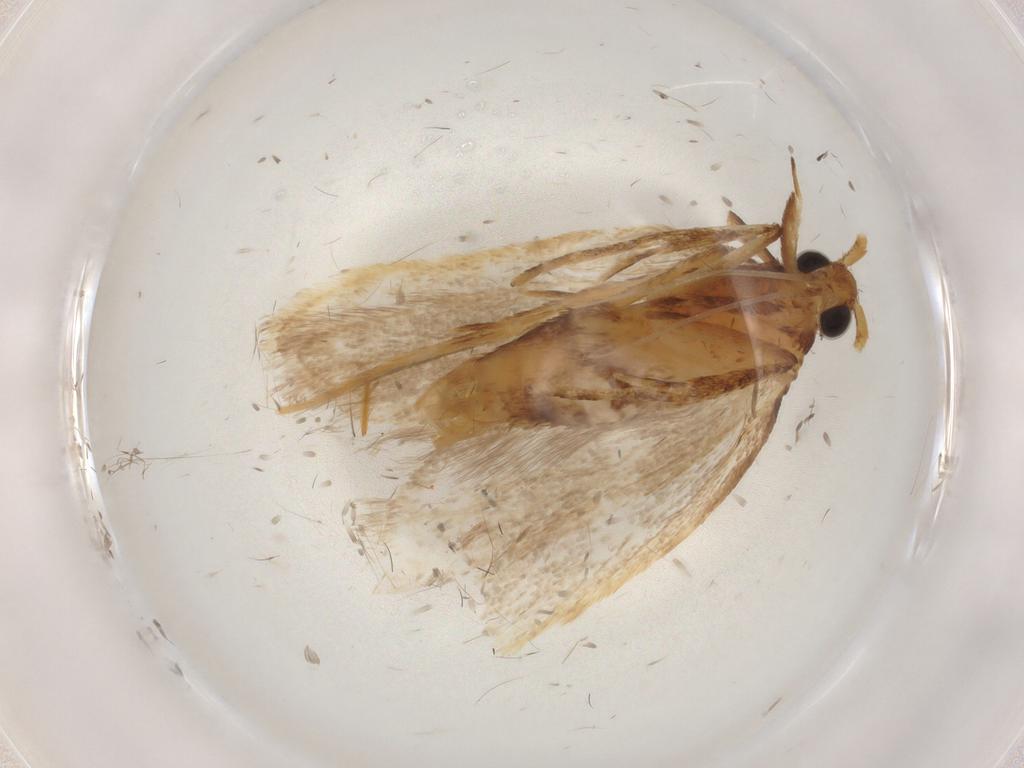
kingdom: Animalia
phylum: Arthropoda
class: Insecta
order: Lepidoptera
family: Lecithoceridae
